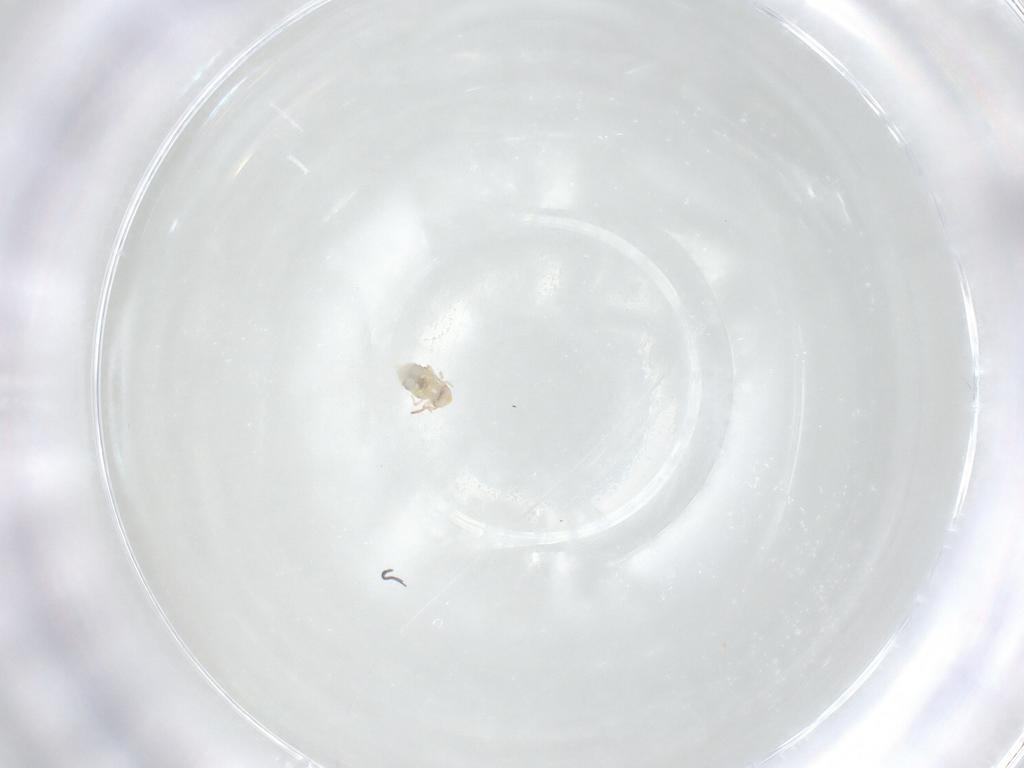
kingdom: Animalia
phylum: Arthropoda
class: Collembola
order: Symphypleona
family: Bourletiellidae
